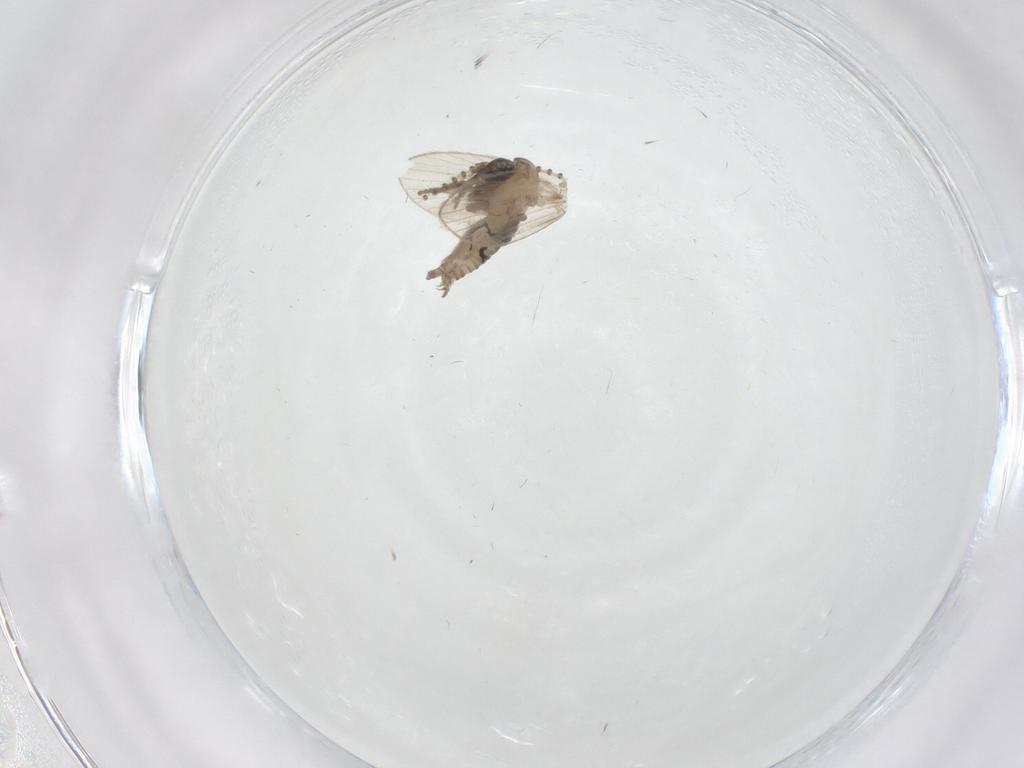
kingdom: Animalia
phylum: Arthropoda
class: Insecta
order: Diptera
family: Psychodidae
